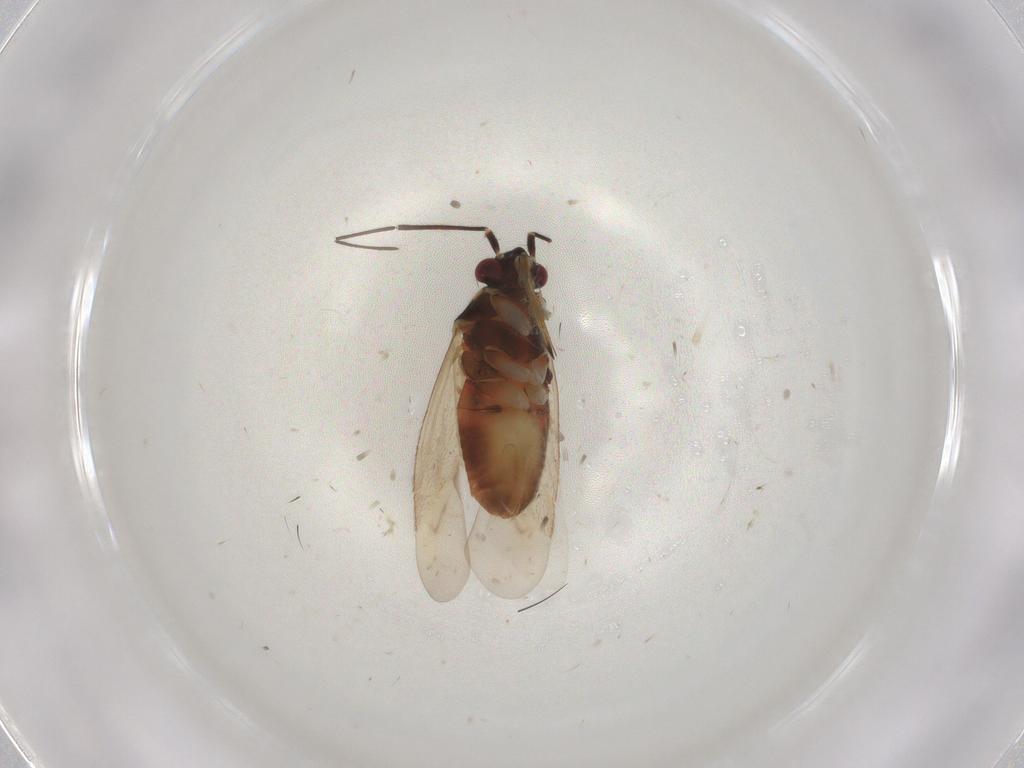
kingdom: Animalia
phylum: Arthropoda
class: Insecta
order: Hemiptera
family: Miridae
